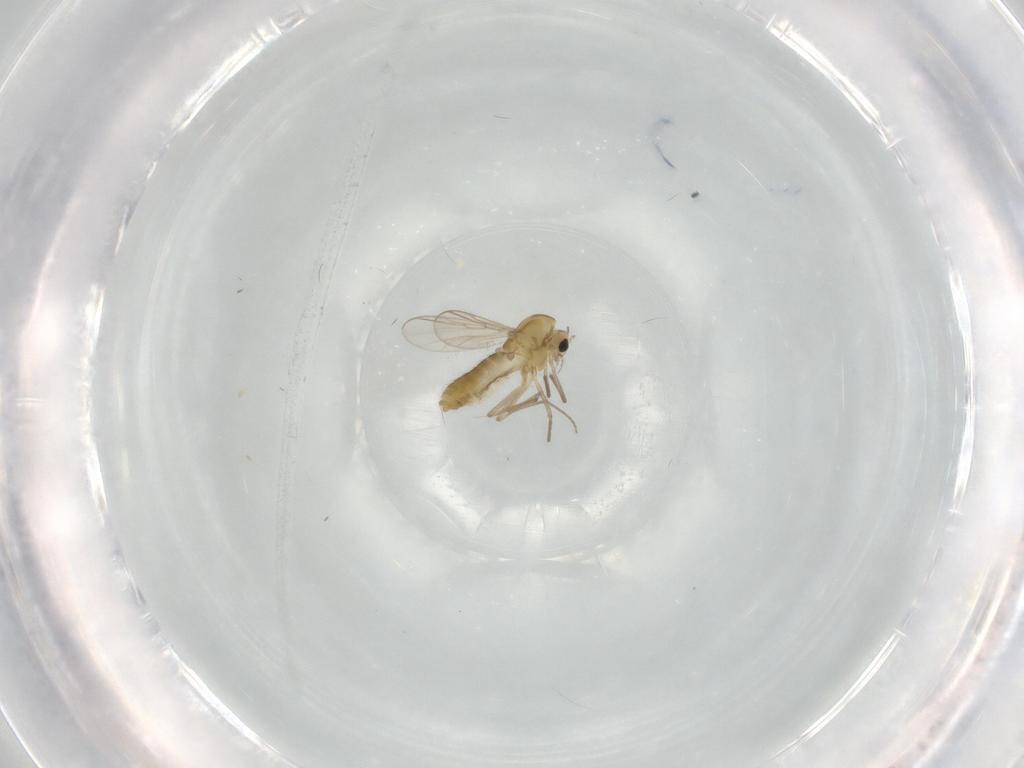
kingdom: Animalia
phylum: Arthropoda
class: Insecta
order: Diptera
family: Chironomidae
